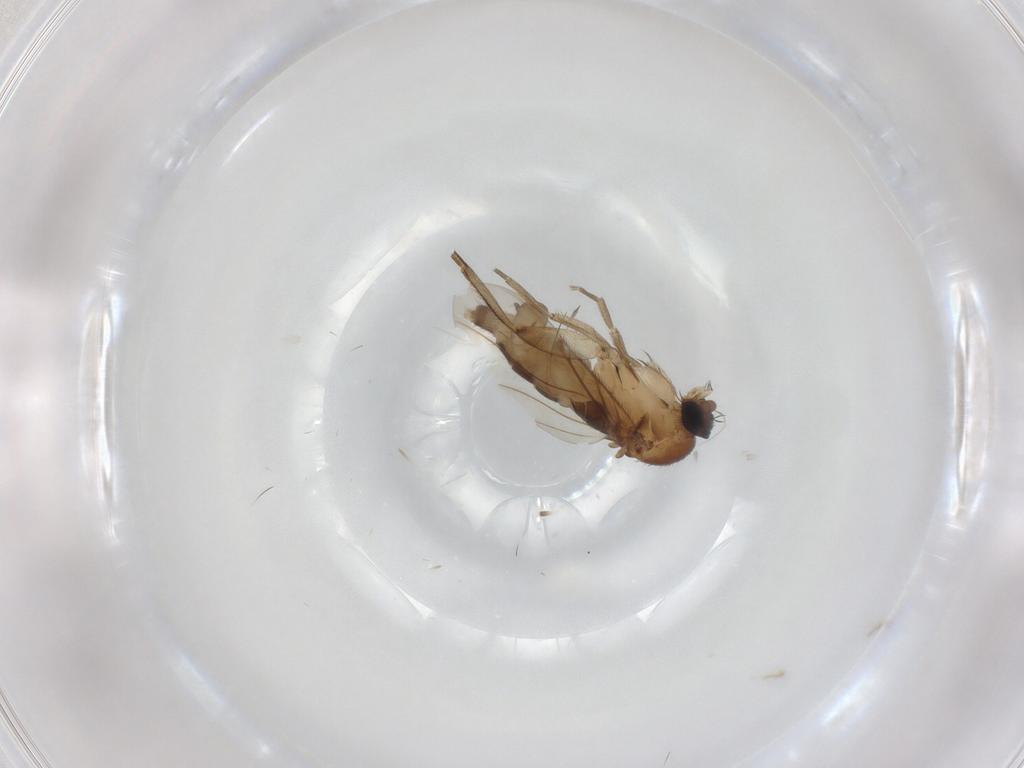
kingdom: Animalia
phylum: Arthropoda
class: Insecta
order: Diptera
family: Phoridae
